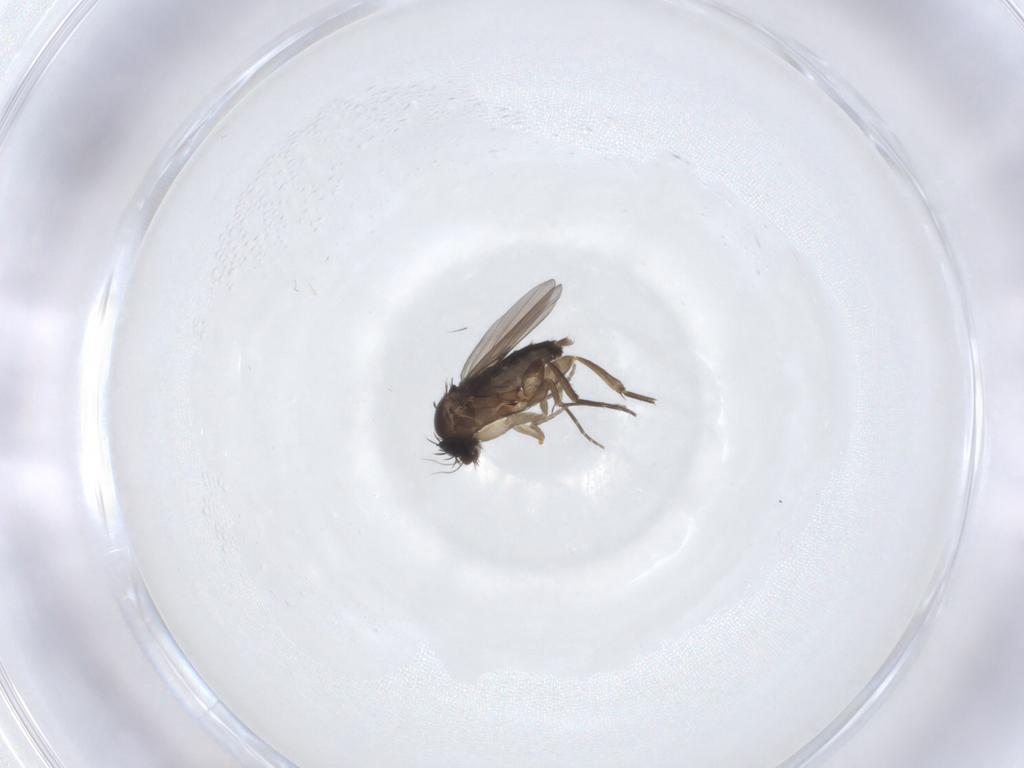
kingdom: Animalia
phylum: Arthropoda
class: Insecta
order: Diptera
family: Phoridae
